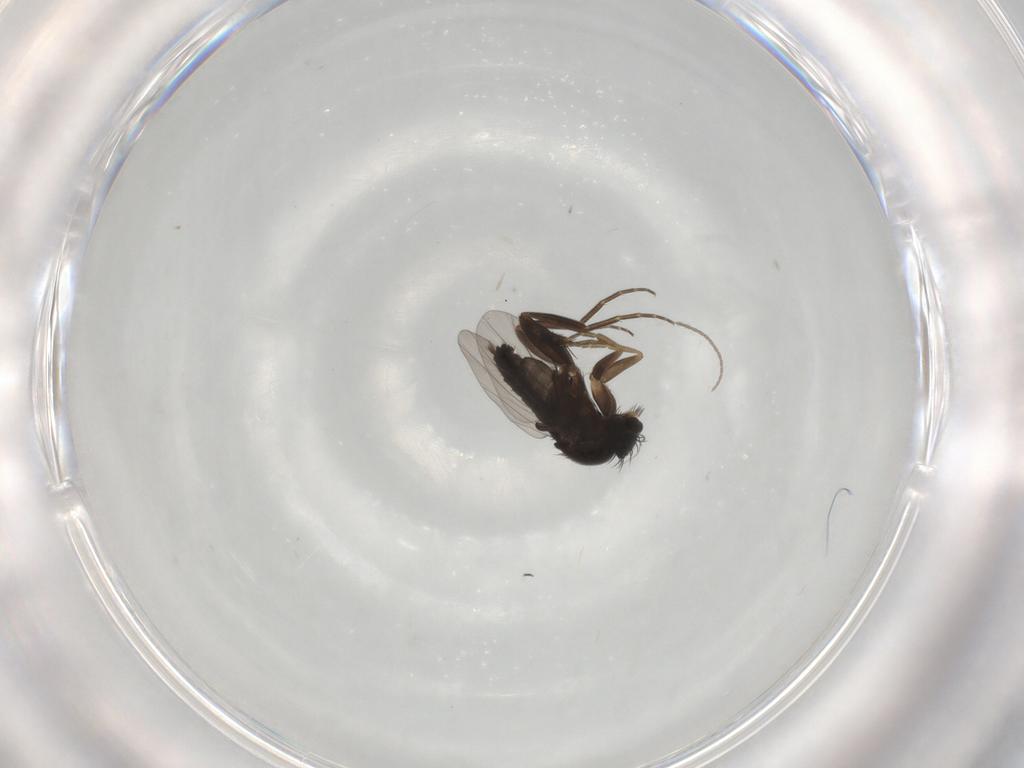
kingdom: Animalia
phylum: Arthropoda
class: Insecta
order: Diptera
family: Phoridae
